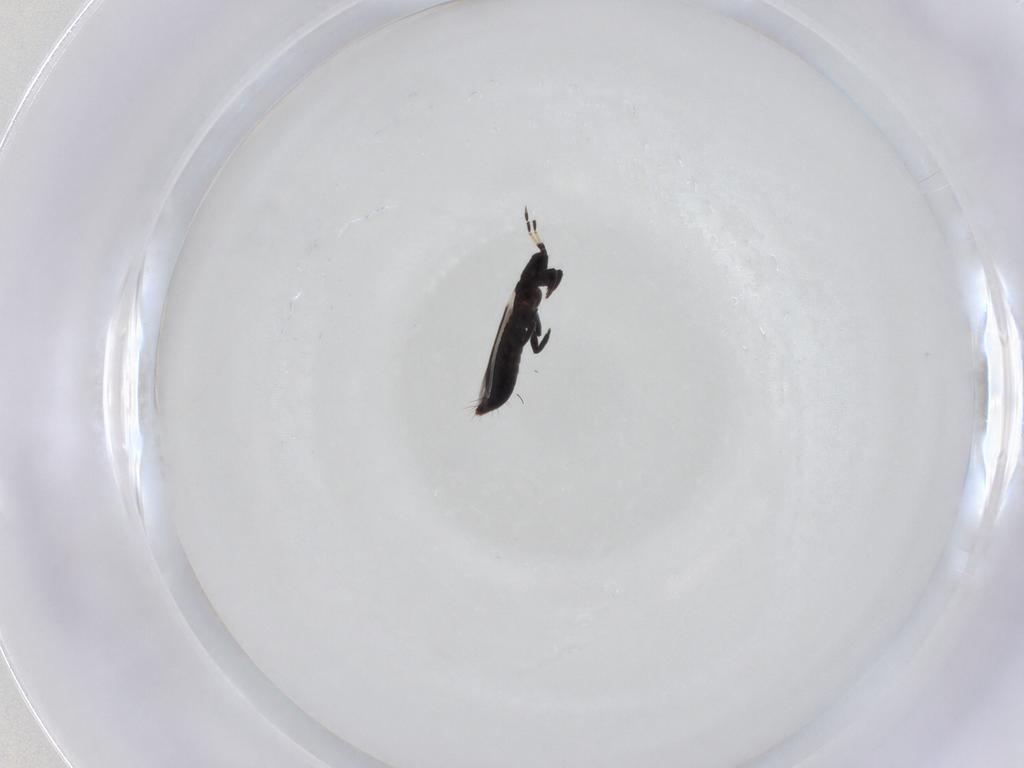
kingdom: Animalia
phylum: Arthropoda
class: Insecta
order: Thysanoptera
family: Aeolothripidae
